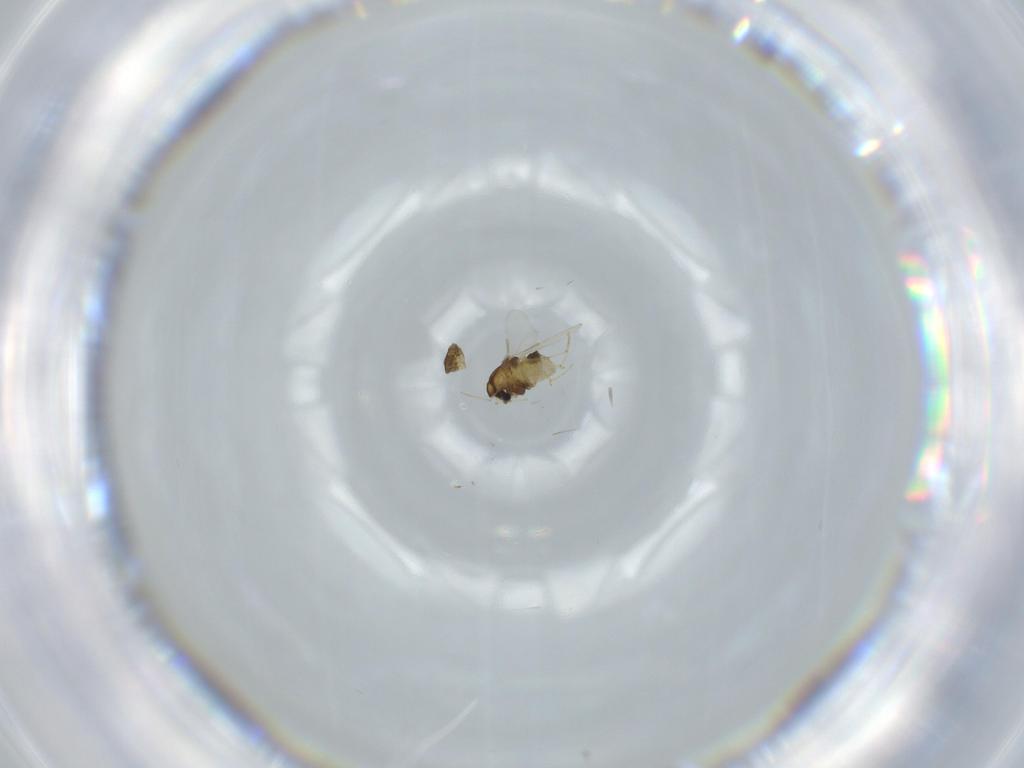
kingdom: Animalia
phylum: Arthropoda
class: Insecta
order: Diptera
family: Chironomidae
